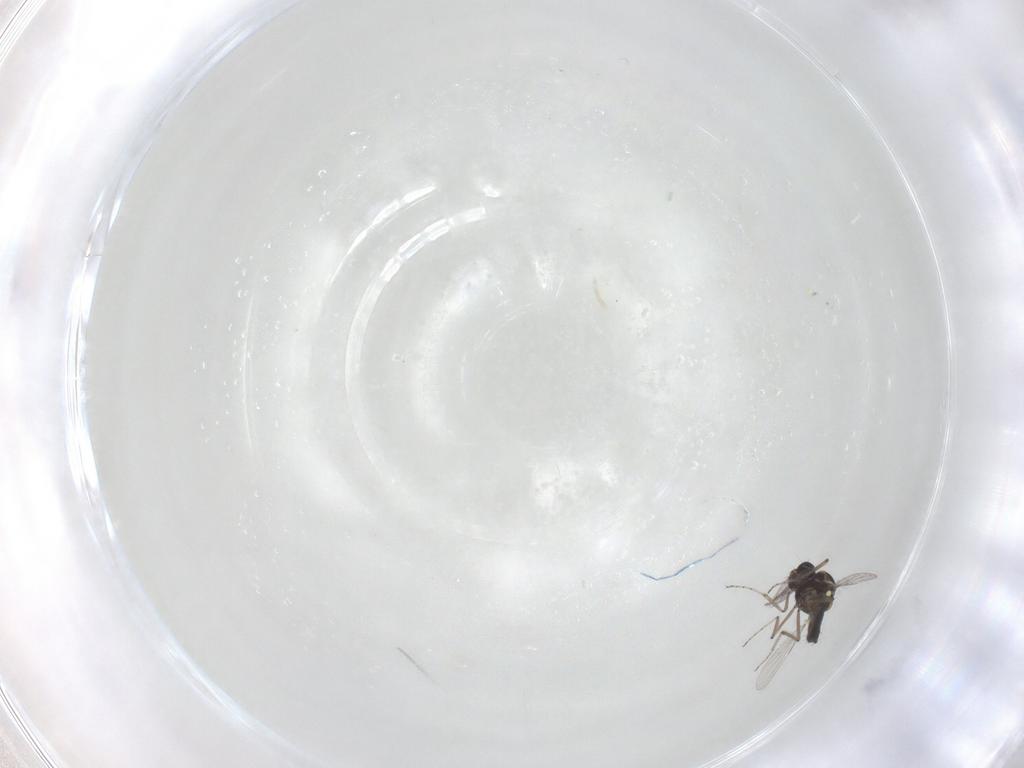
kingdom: Animalia
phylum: Arthropoda
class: Insecta
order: Diptera
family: Ceratopogonidae
